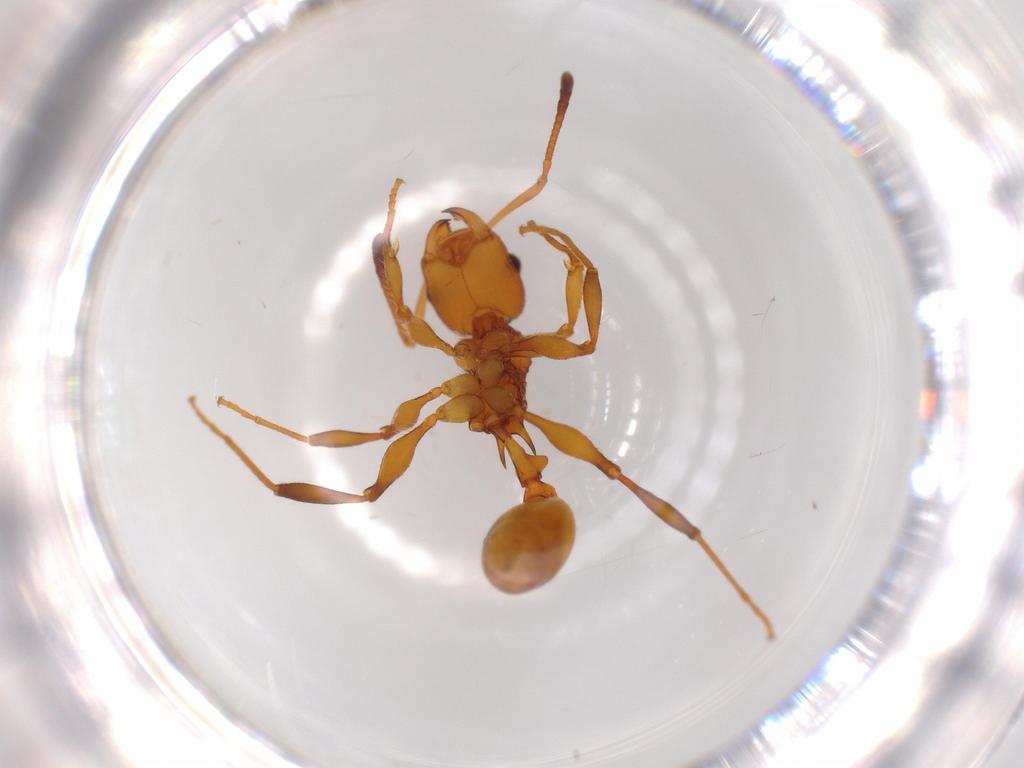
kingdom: Animalia
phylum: Arthropoda
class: Insecta
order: Hymenoptera
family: Formicidae
